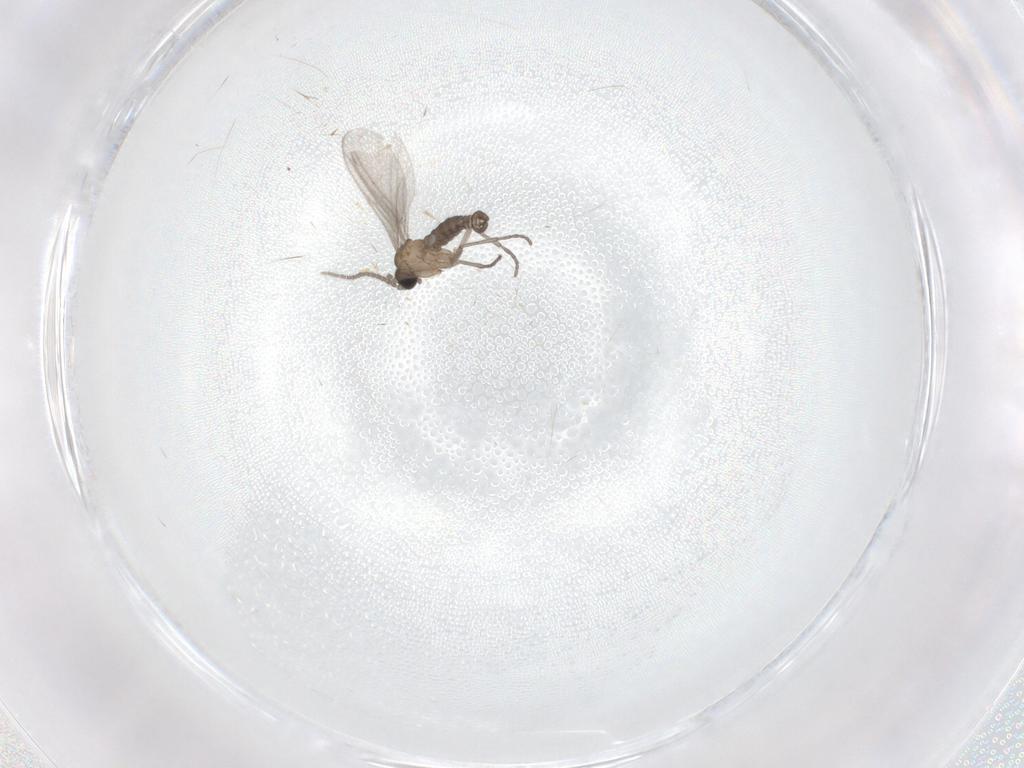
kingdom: Animalia
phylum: Arthropoda
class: Insecta
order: Diptera
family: Sciaridae
